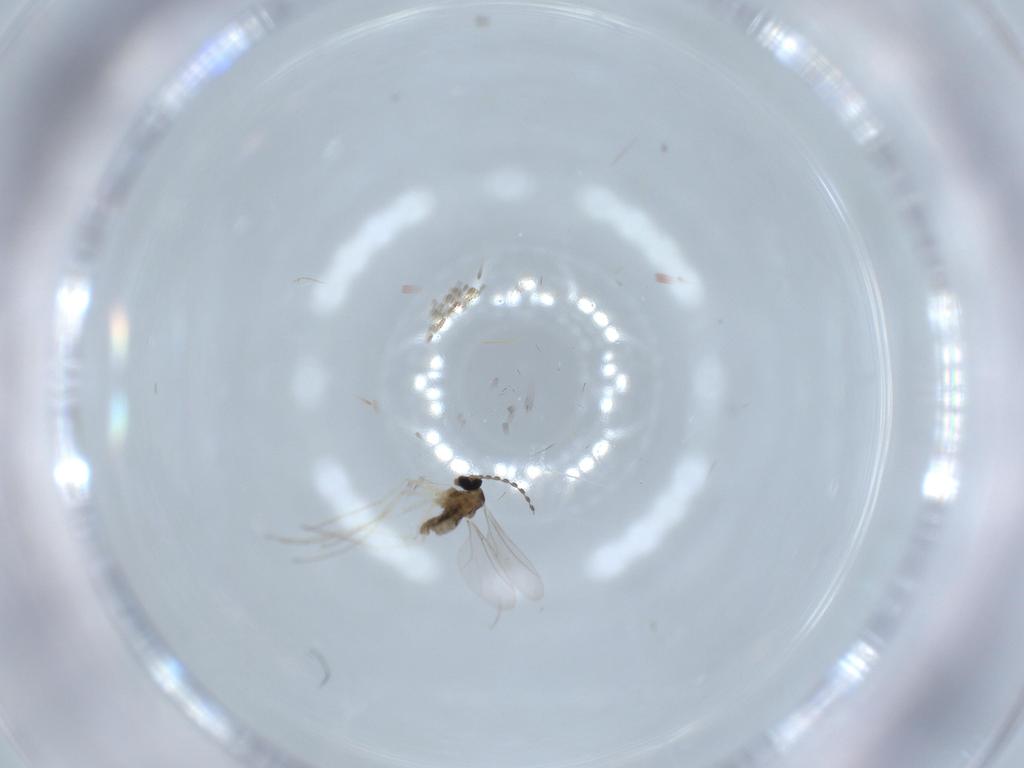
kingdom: Animalia
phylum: Arthropoda
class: Insecta
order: Diptera
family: Cecidomyiidae
